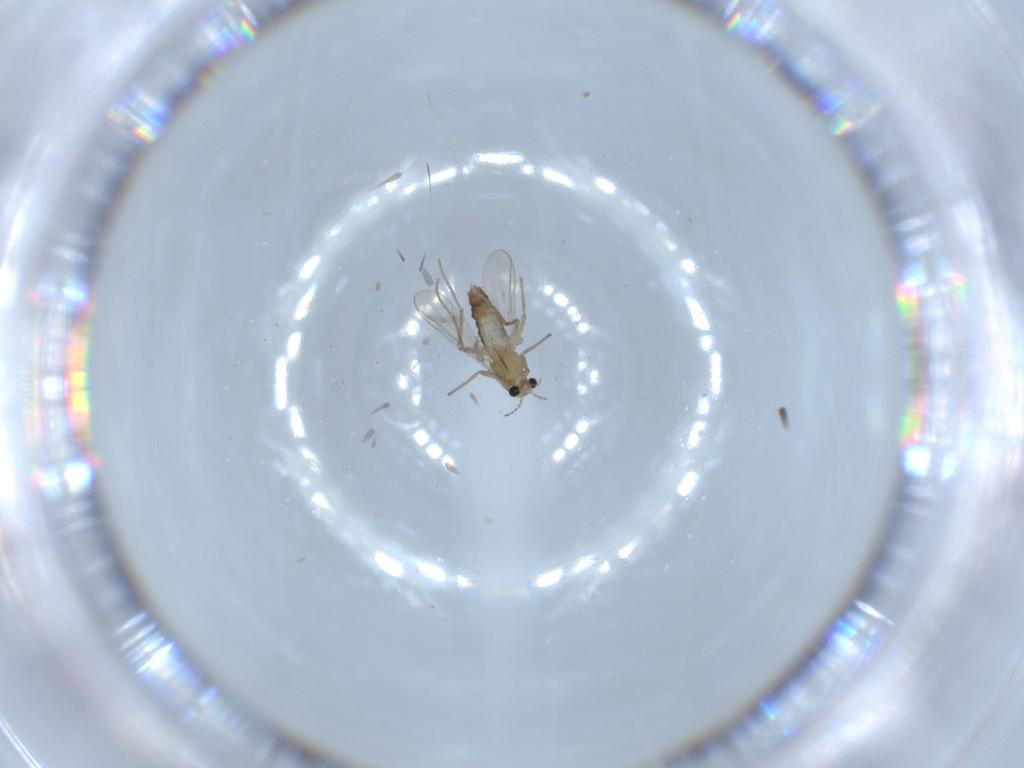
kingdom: Animalia
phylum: Arthropoda
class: Insecta
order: Diptera
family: Chironomidae
